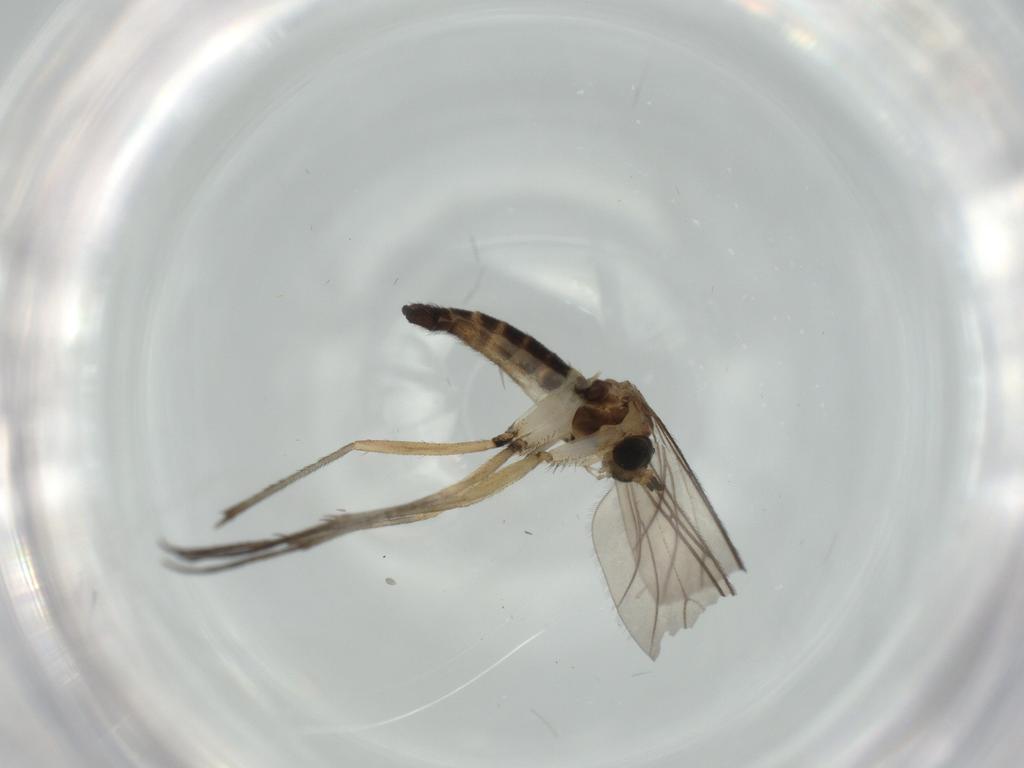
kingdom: Animalia
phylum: Arthropoda
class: Insecta
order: Diptera
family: Sciaridae
